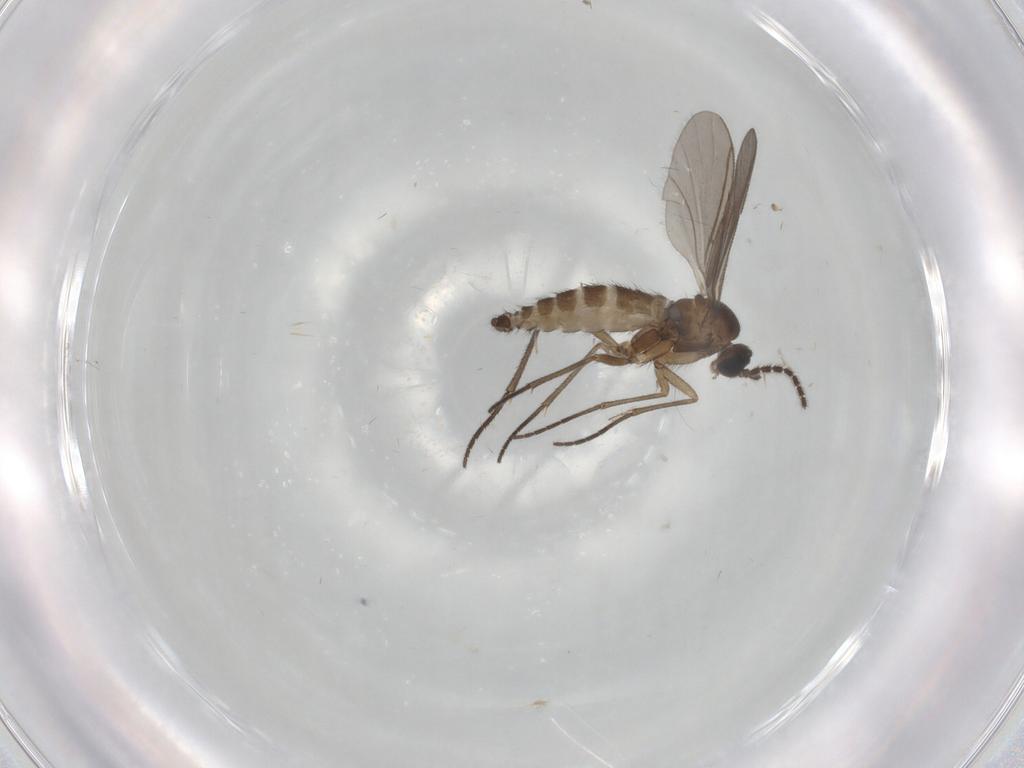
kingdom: Animalia
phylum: Arthropoda
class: Insecta
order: Diptera
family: Sciaridae
